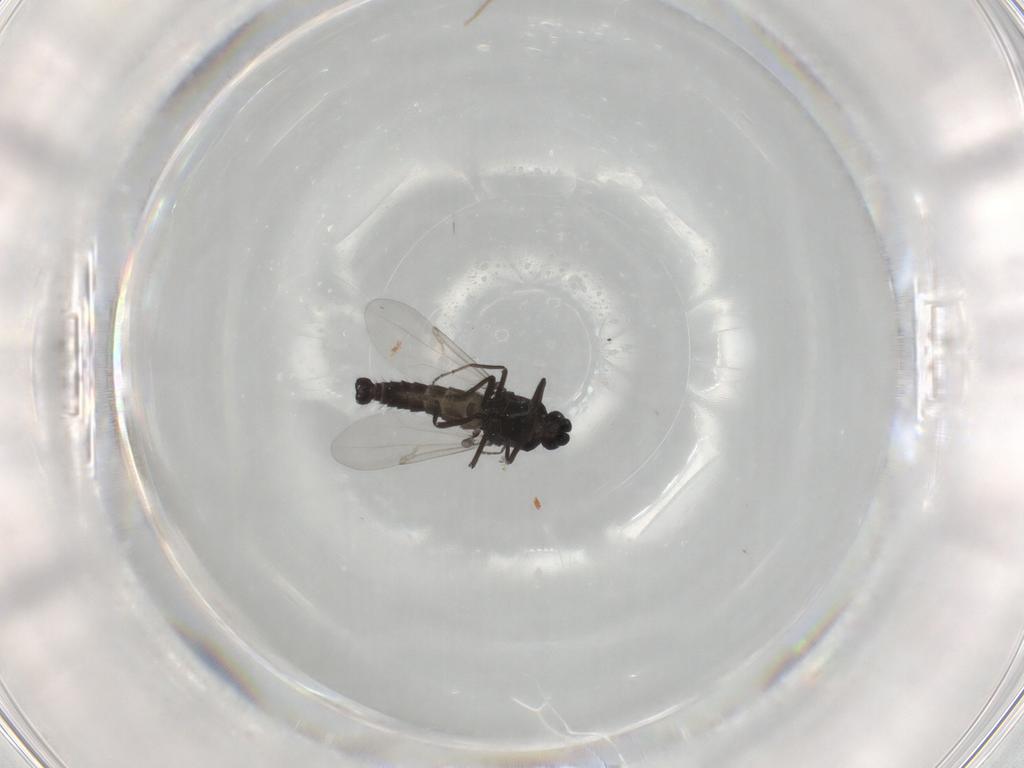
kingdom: Animalia
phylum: Arthropoda
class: Insecta
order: Diptera
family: Ceratopogonidae
